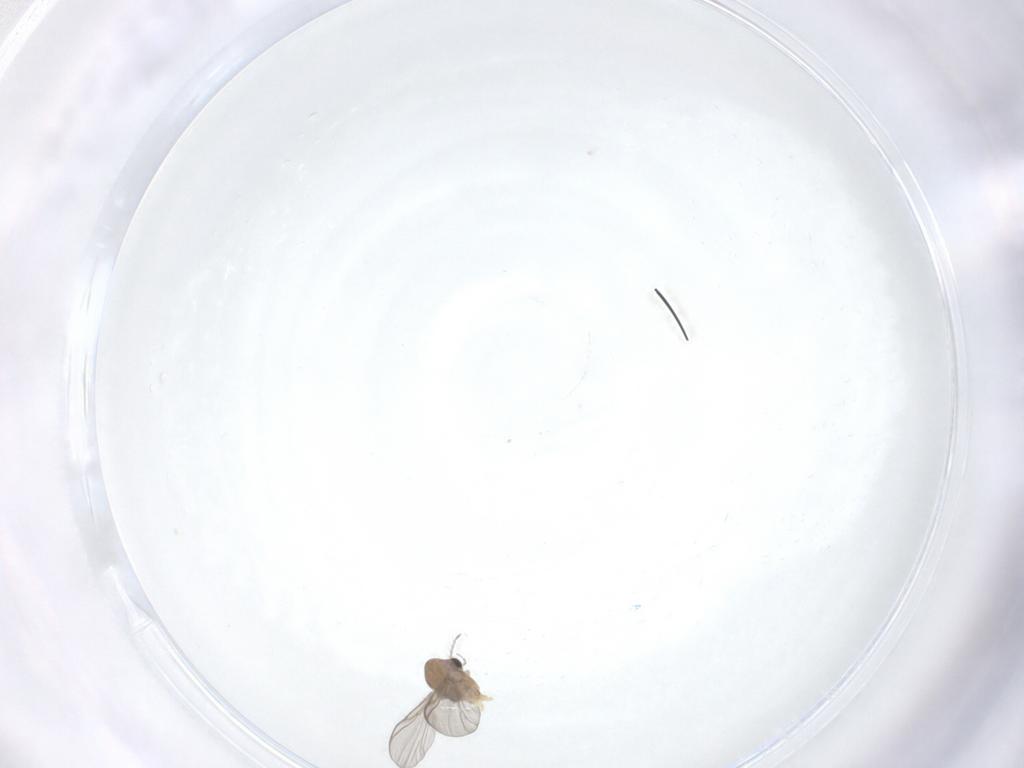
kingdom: Animalia
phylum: Arthropoda
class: Insecta
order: Diptera
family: Chironomidae
